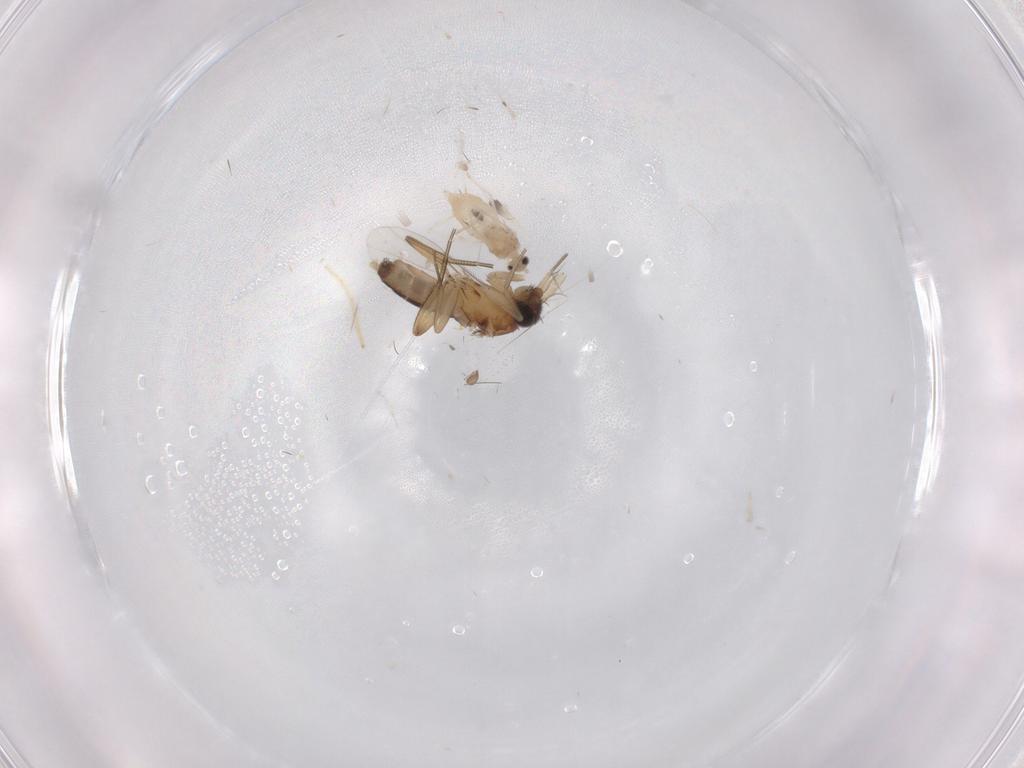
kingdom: Animalia
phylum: Arthropoda
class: Insecta
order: Diptera
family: Phoridae
